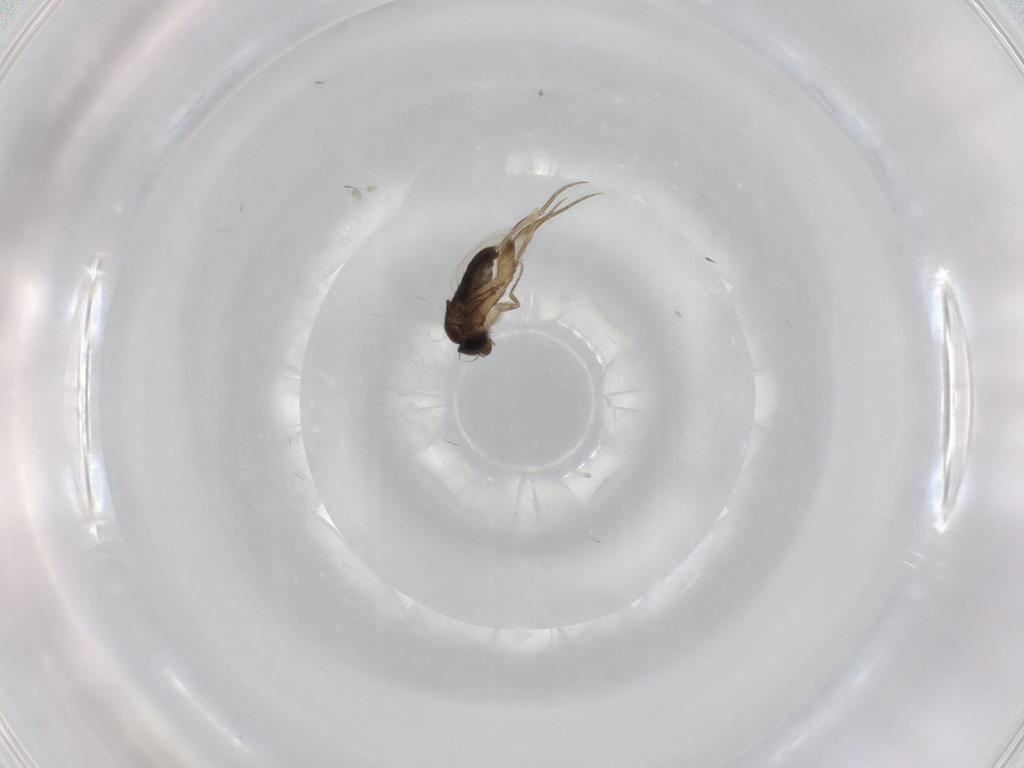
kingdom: Animalia
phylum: Arthropoda
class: Insecta
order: Diptera
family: Cecidomyiidae
